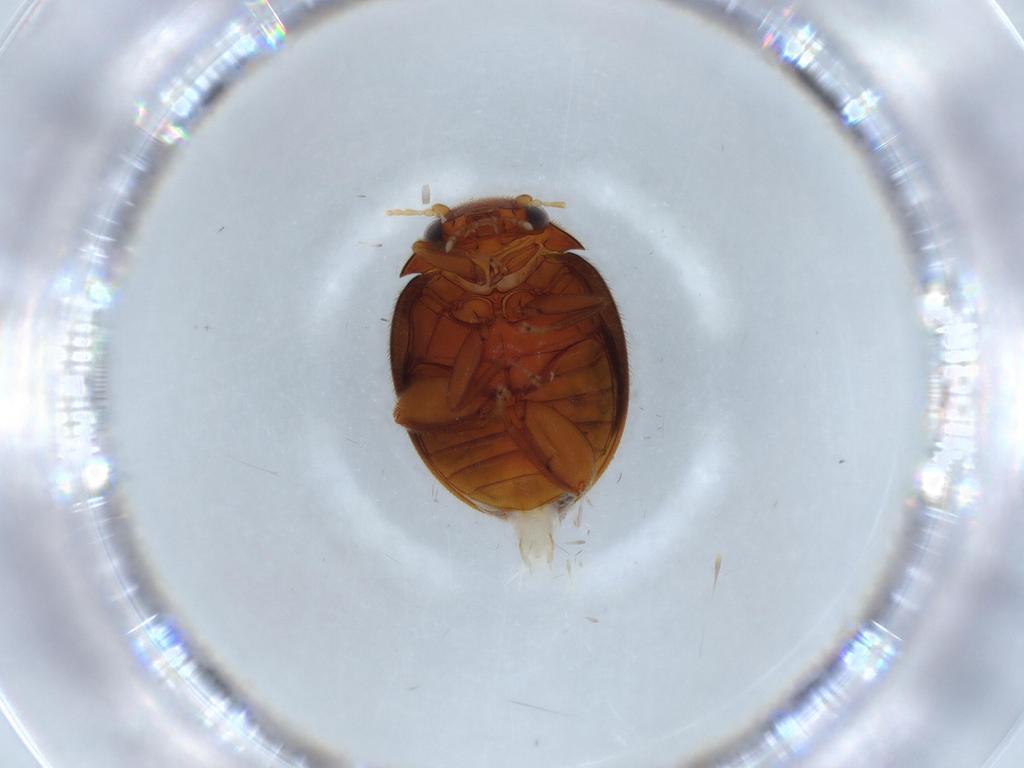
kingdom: Animalia
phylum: Arthropoda
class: Insecta
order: Coleoptera
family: Scirtidae
